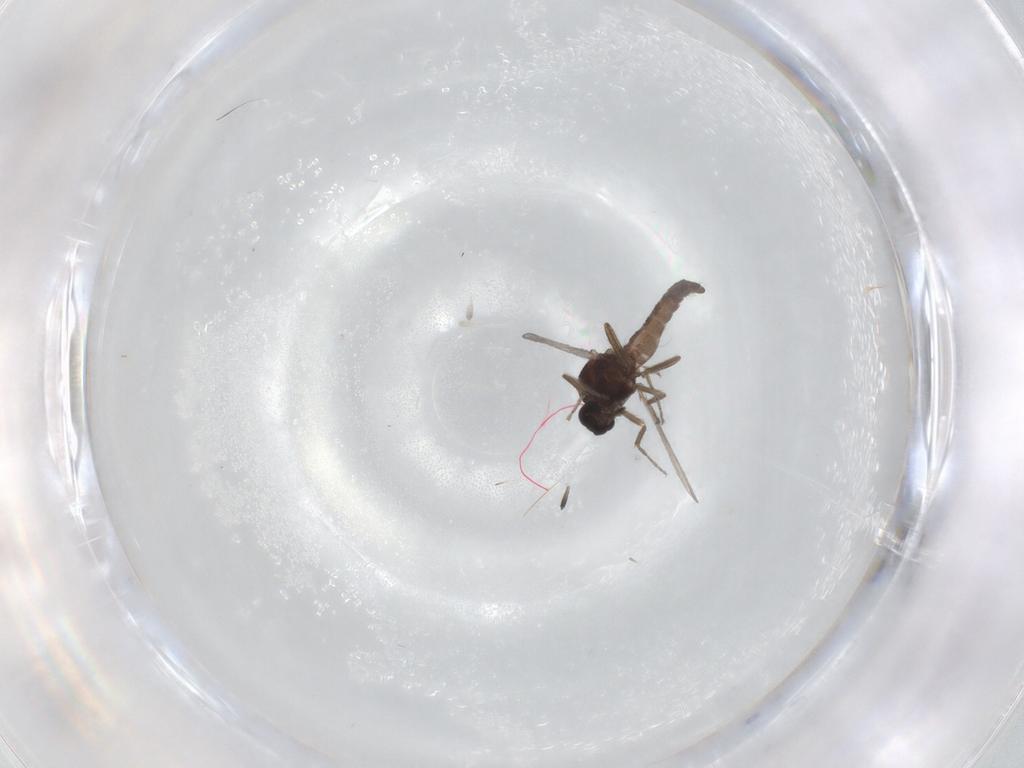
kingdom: Animalia
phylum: Arthropoda
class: Insecta
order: Diptera
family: Ceratopogonidae
